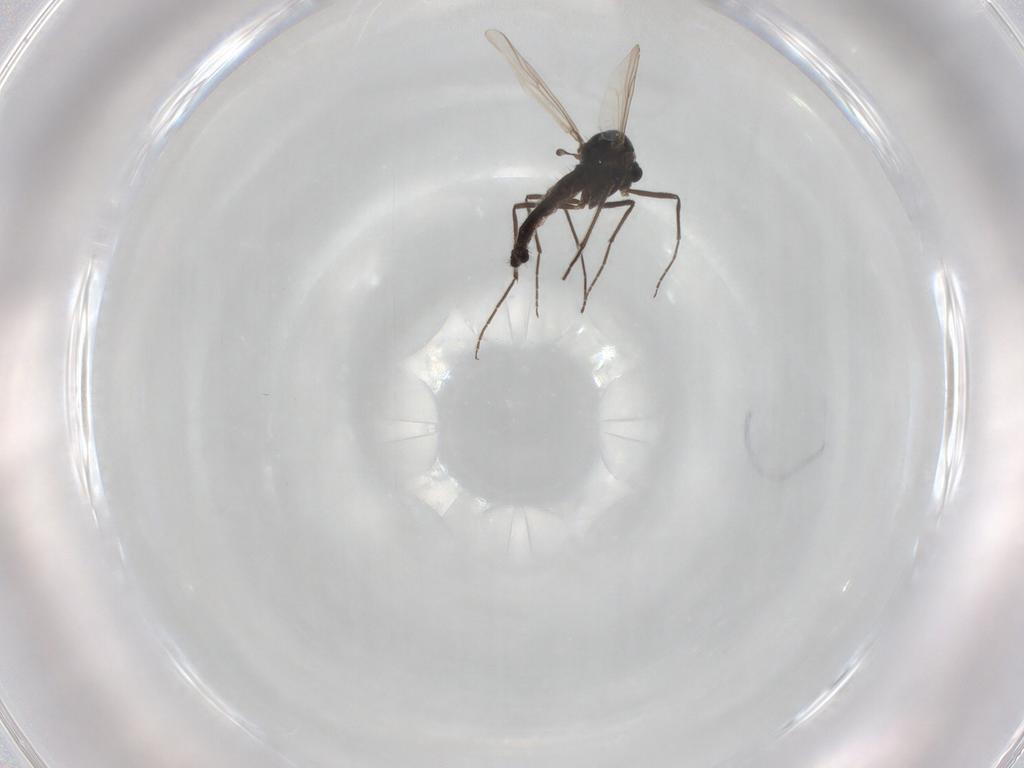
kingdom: Animalia
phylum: Arthropoda
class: Insecta
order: Diptera
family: Chironomidae
